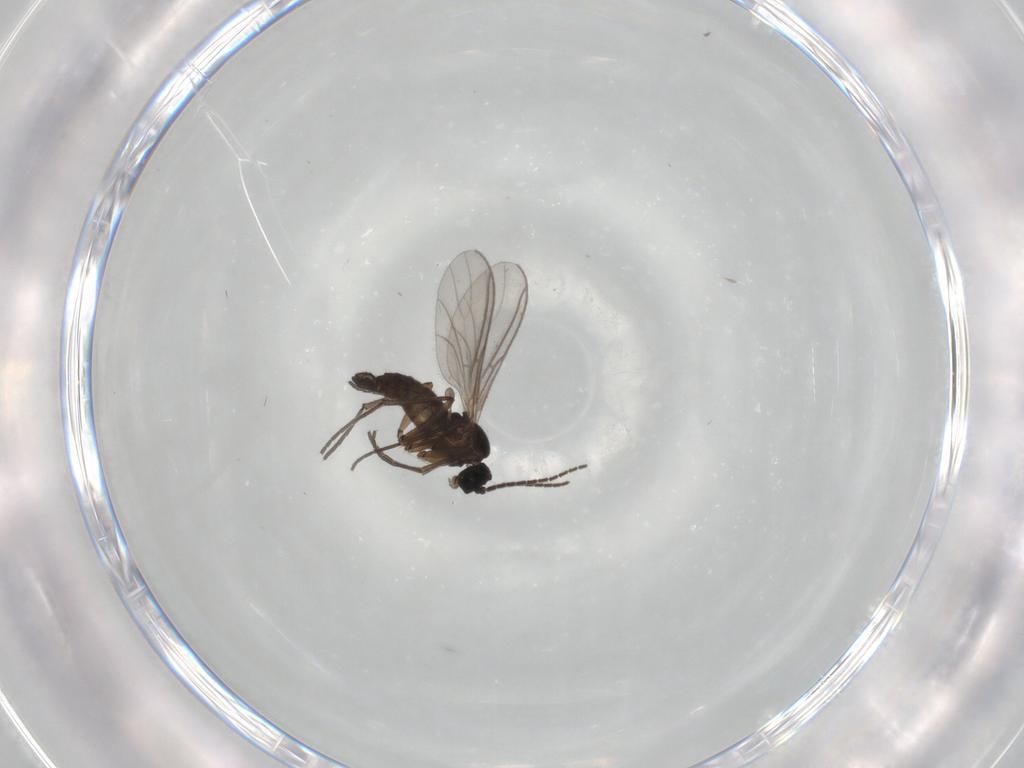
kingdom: Animalia
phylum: Arthropoda
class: Insecta
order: Diptera
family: Sciaridae
